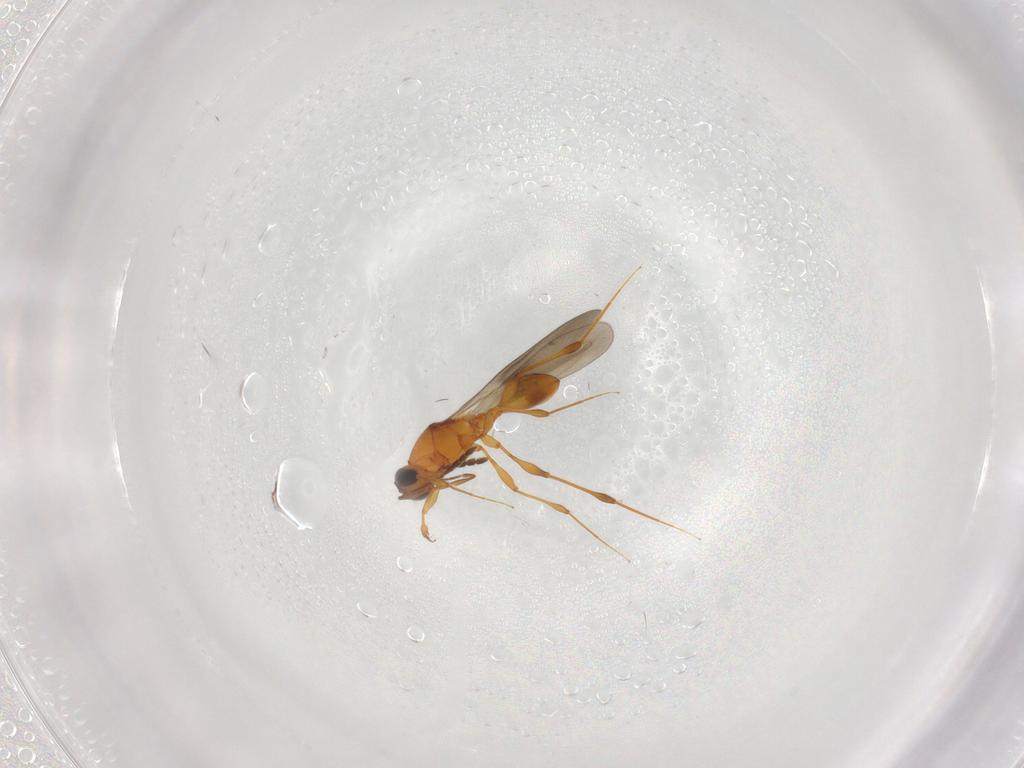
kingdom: Animalia
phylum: Arthropoda
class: Insecta
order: Hymenoptera
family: Platygastridae
